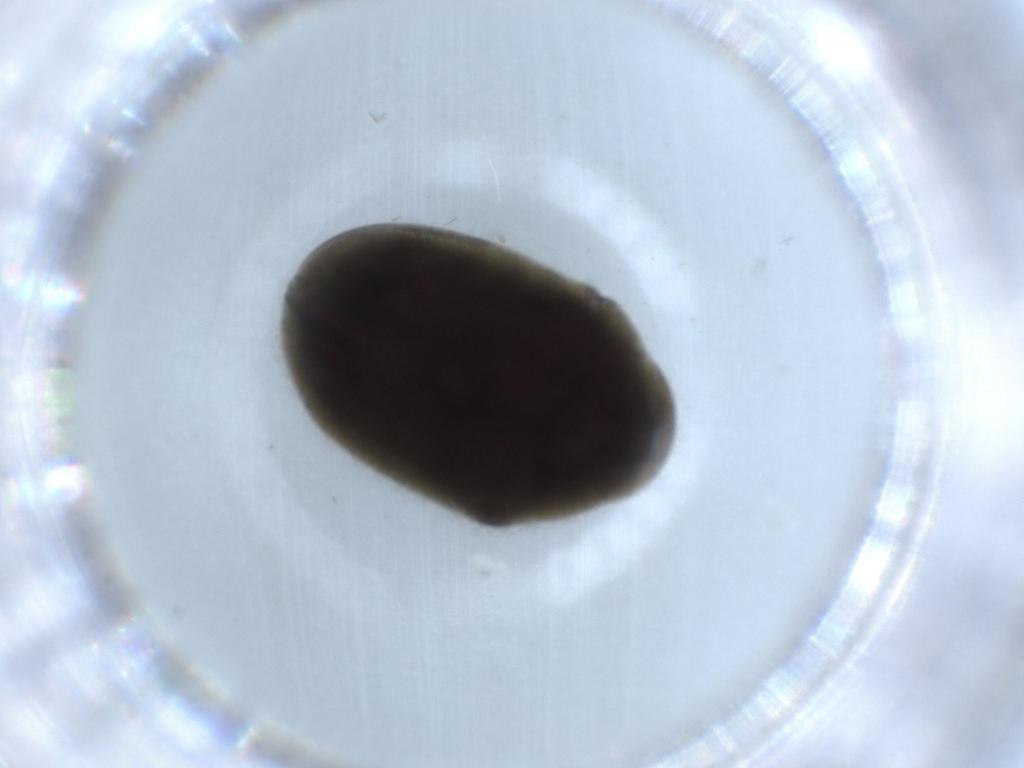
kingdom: Animalia
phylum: Arthropoda
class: Insecta
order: Coleoptera
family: Ptinidae
